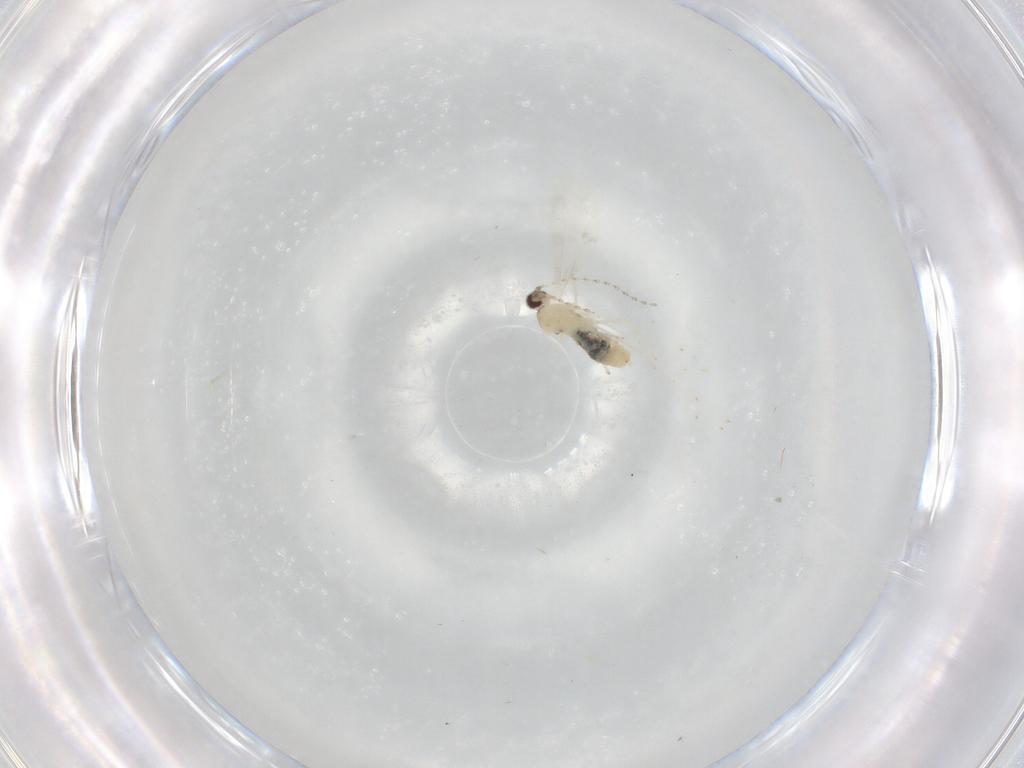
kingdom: Animalia
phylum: Arthropoda
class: Insecta
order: Diptera
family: Cecidomyiidae
